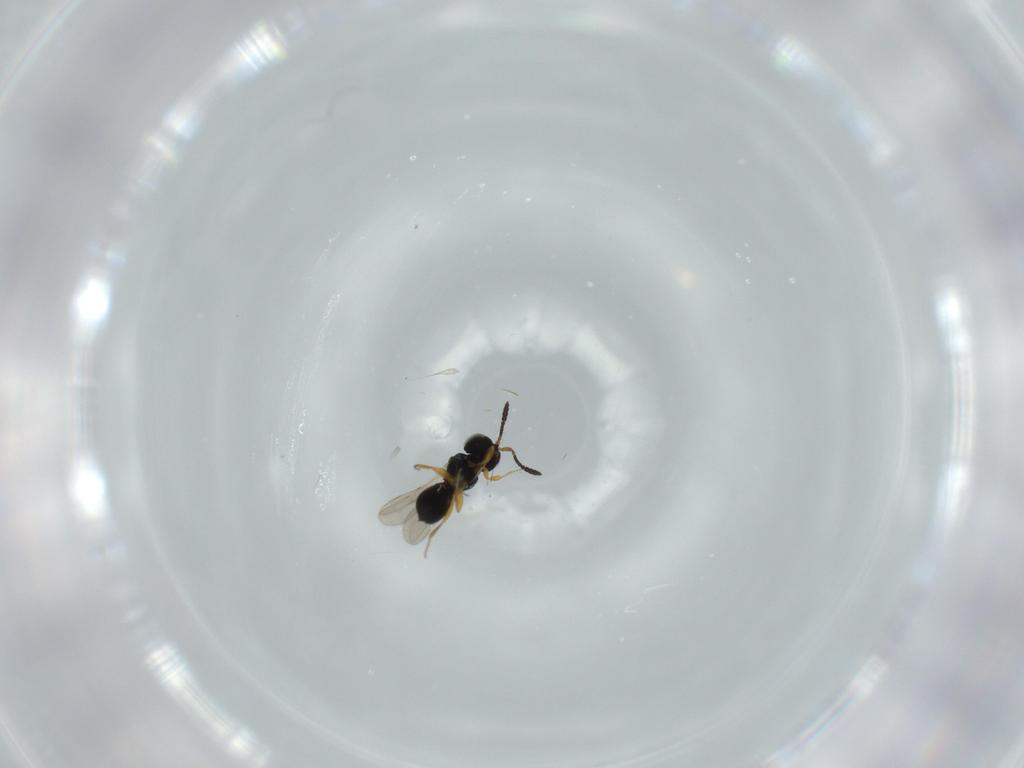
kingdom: Animalia
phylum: Arthropoda
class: Insecta
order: Hymenoptera
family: Scelionidae
